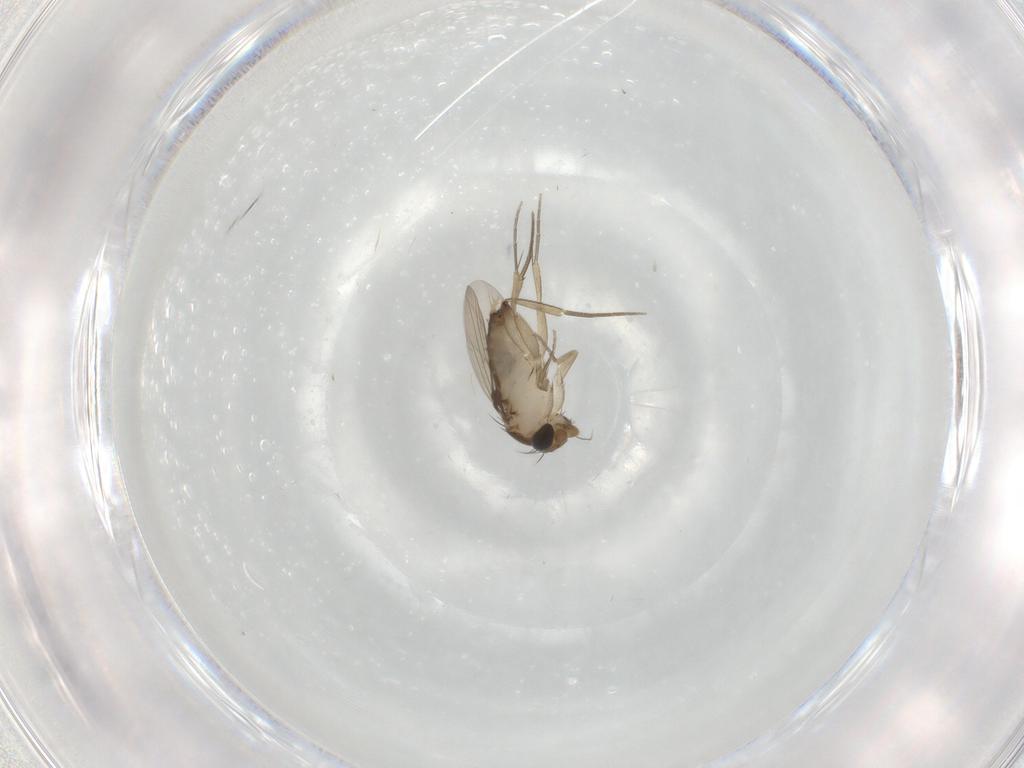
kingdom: Animalia
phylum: Arthropoda
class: Insecta
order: Diptera
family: Phoridae
